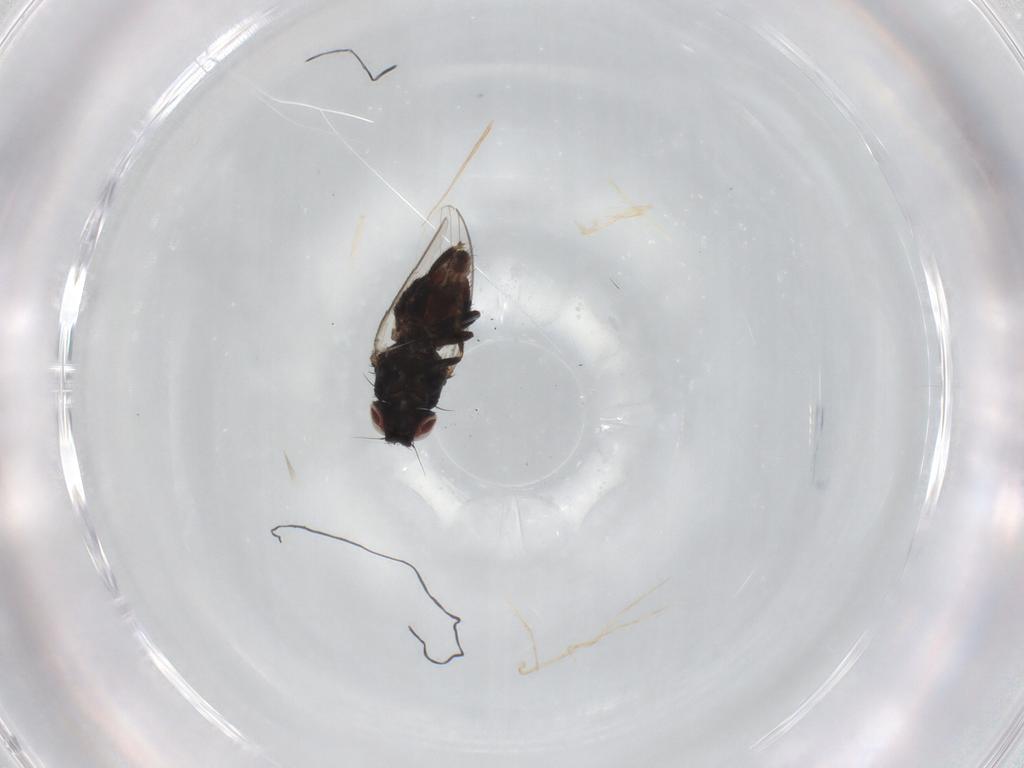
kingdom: Animalia
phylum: Arthropoda
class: Insecta
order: Diptera
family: Milichiidae
